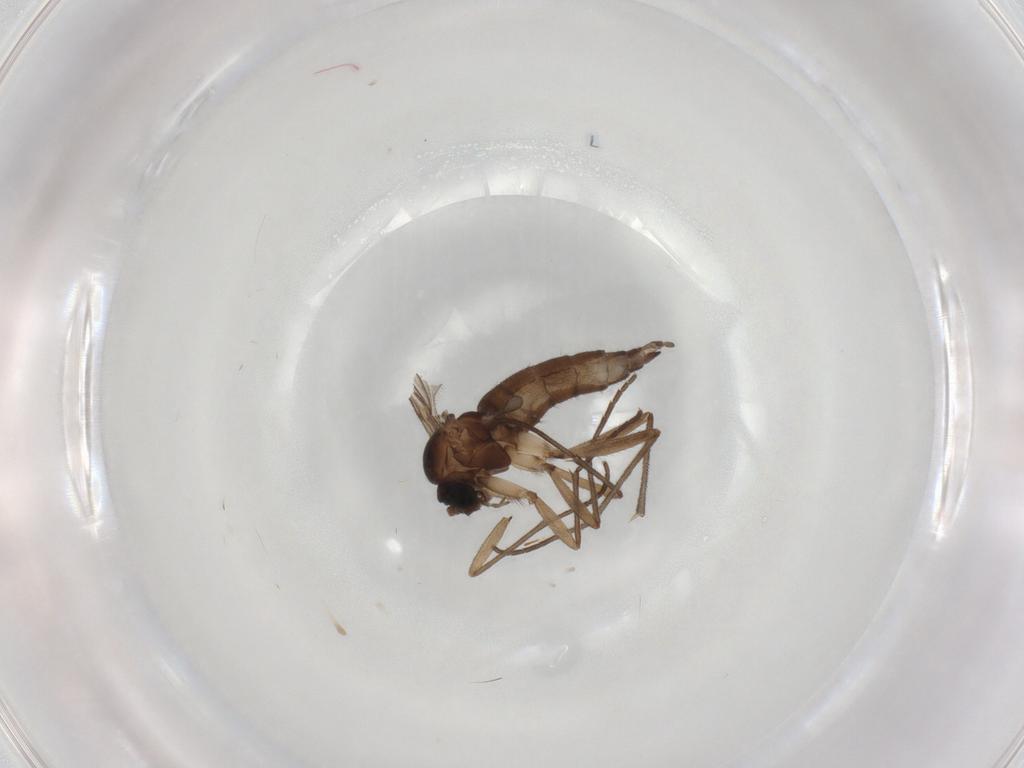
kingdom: Animalia
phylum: Arthropoda
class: Insecta
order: Diptera
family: Sciaridae
